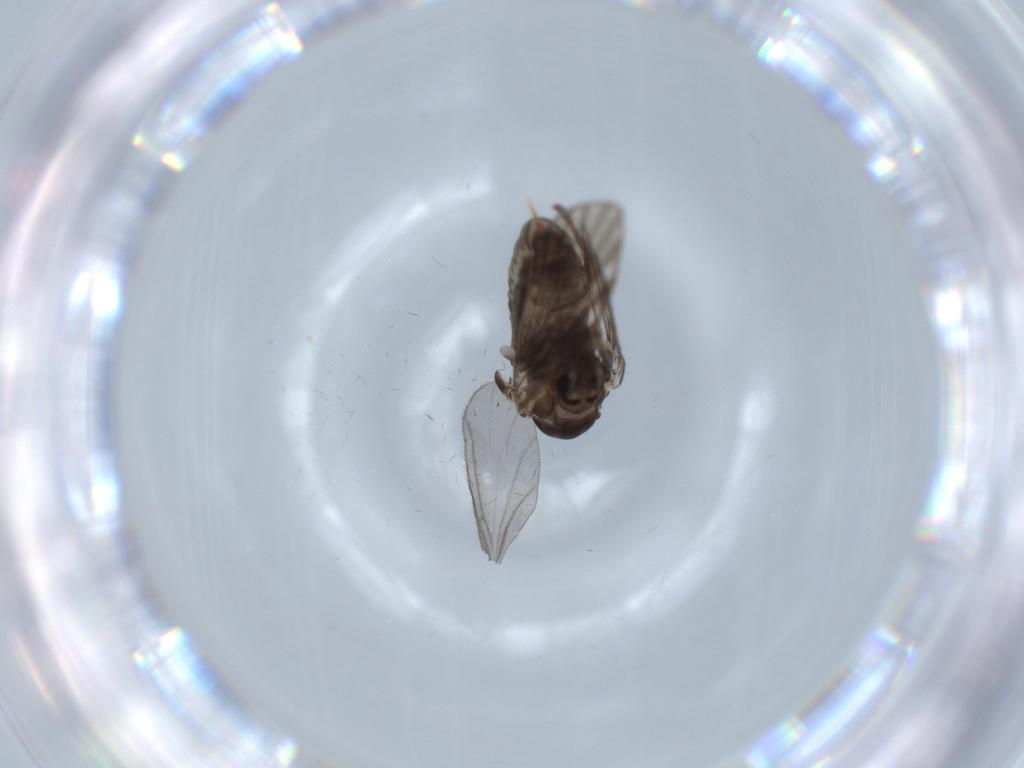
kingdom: Animalia
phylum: Arthropoda
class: Insecta
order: Diptera
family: Psychodidae
